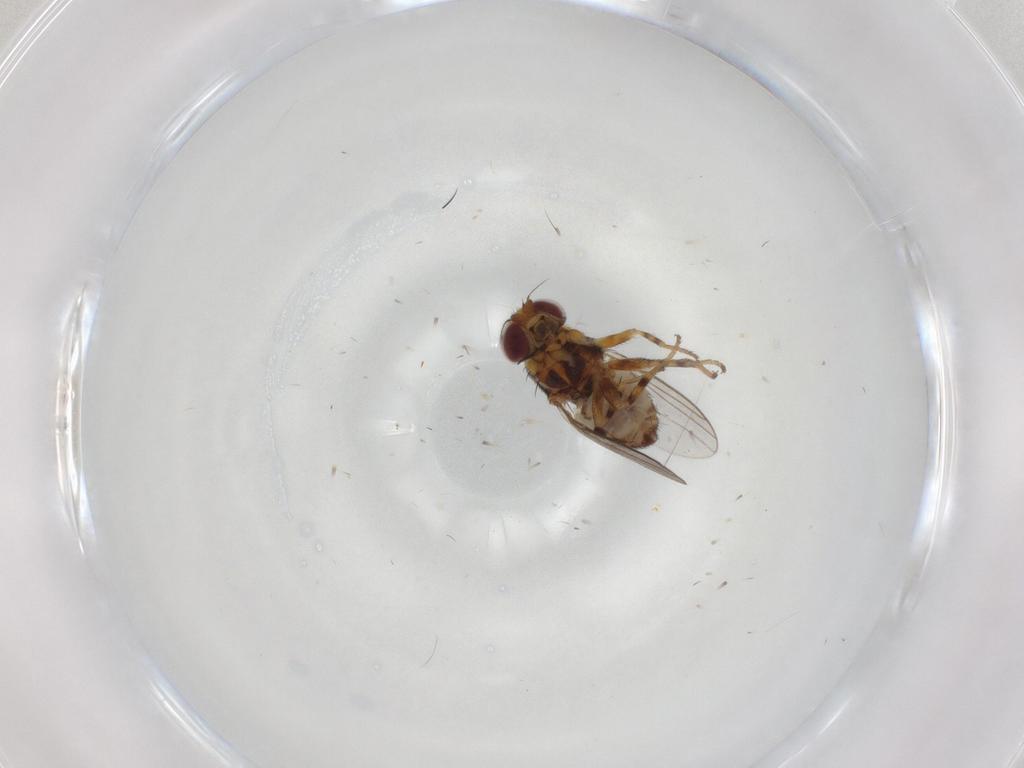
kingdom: Animalia
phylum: Arthropoda
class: Insecta
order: Diptera
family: Chloropidae
